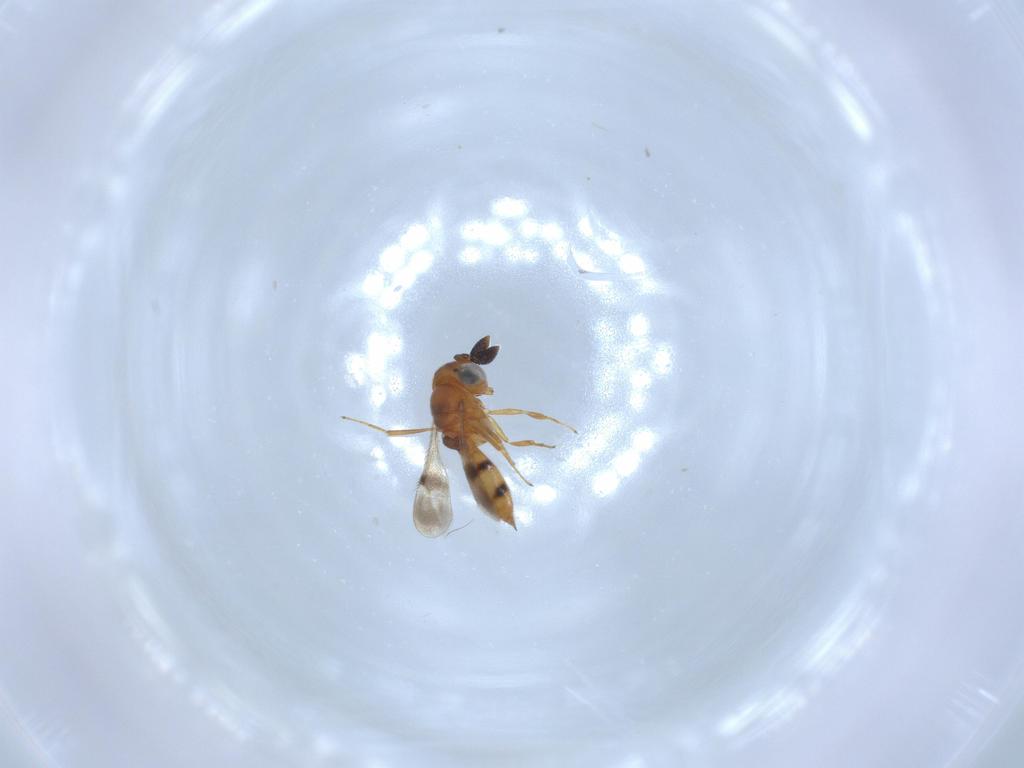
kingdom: Animalia
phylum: Arthropoda
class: Insecta
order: Hymenoptera
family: Scelionidae
